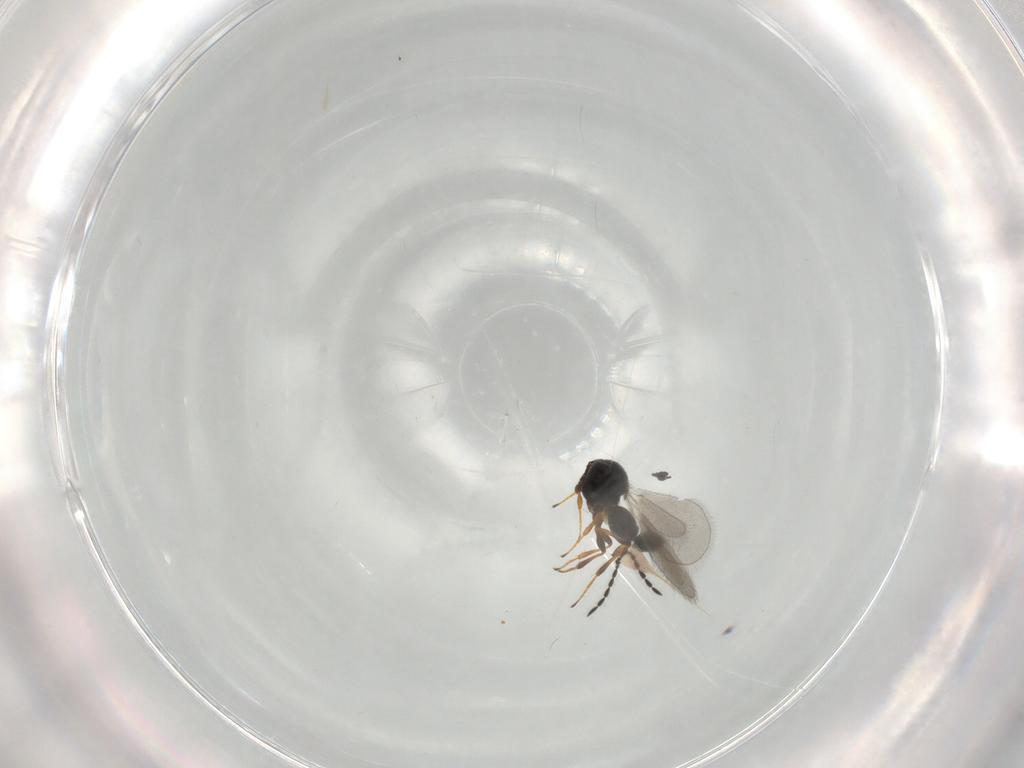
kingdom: Animalia
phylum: Arthropoda
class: Insecta
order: Hymenoptera
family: Platygastridae
